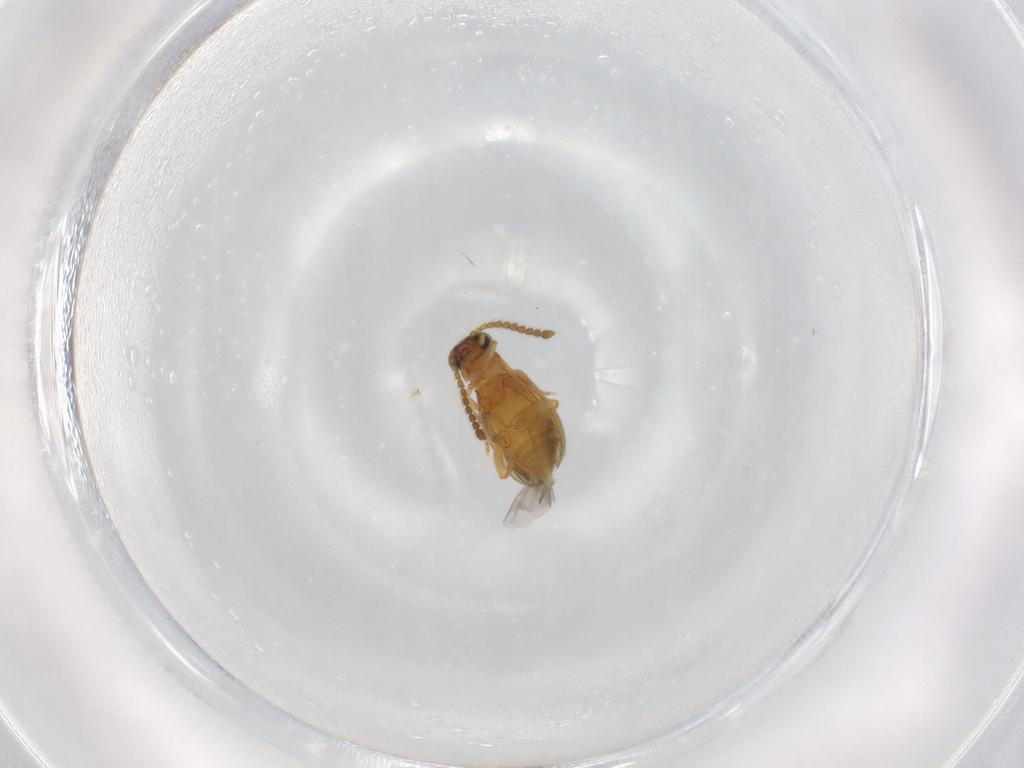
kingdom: Animalia
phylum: Arthropoda
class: Insecta
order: Coleoptera
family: Aderidae
